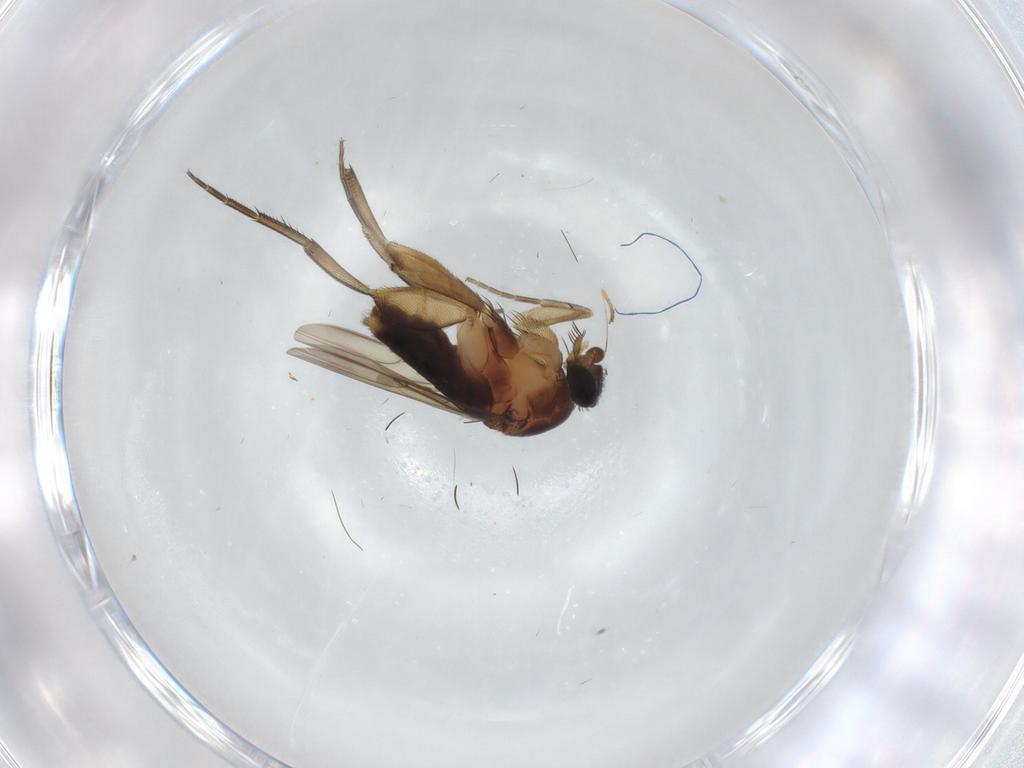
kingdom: Animalia
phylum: Arthropoda
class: Insecta
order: Diptera
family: Phoridae
